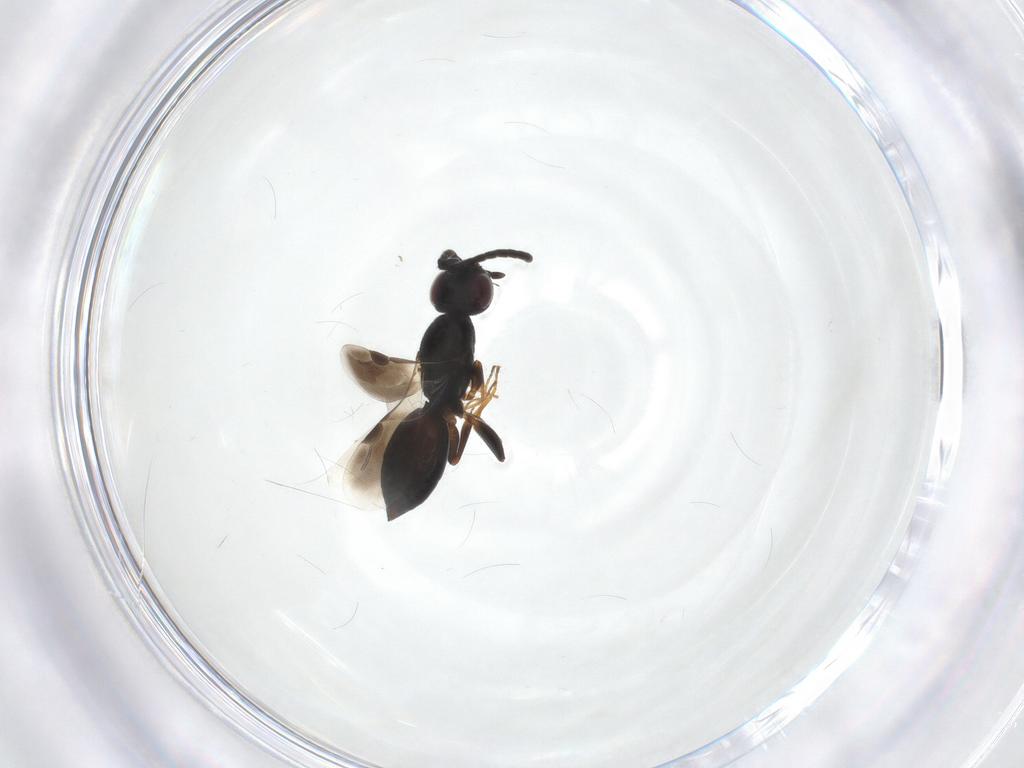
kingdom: Animalia
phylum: Arthropoda
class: Insecta
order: Hymenoptera
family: Megaspilidae
